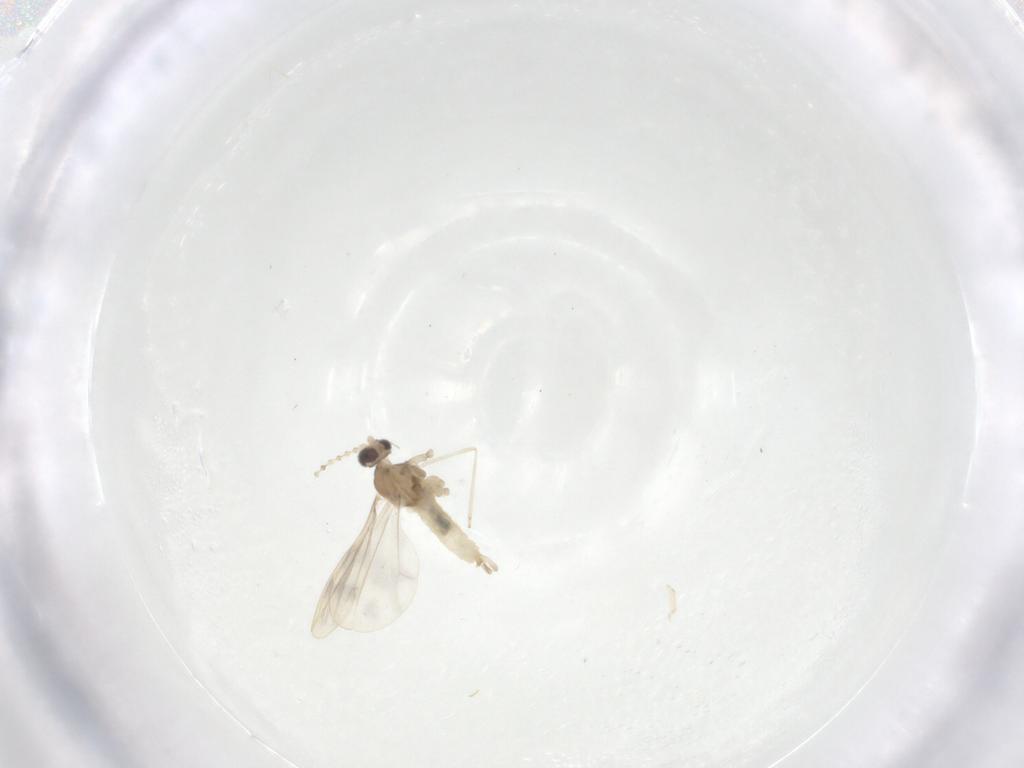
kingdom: Animalia
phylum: Arthropoda
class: Insecta
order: Diptera
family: Cecidomyiidae
